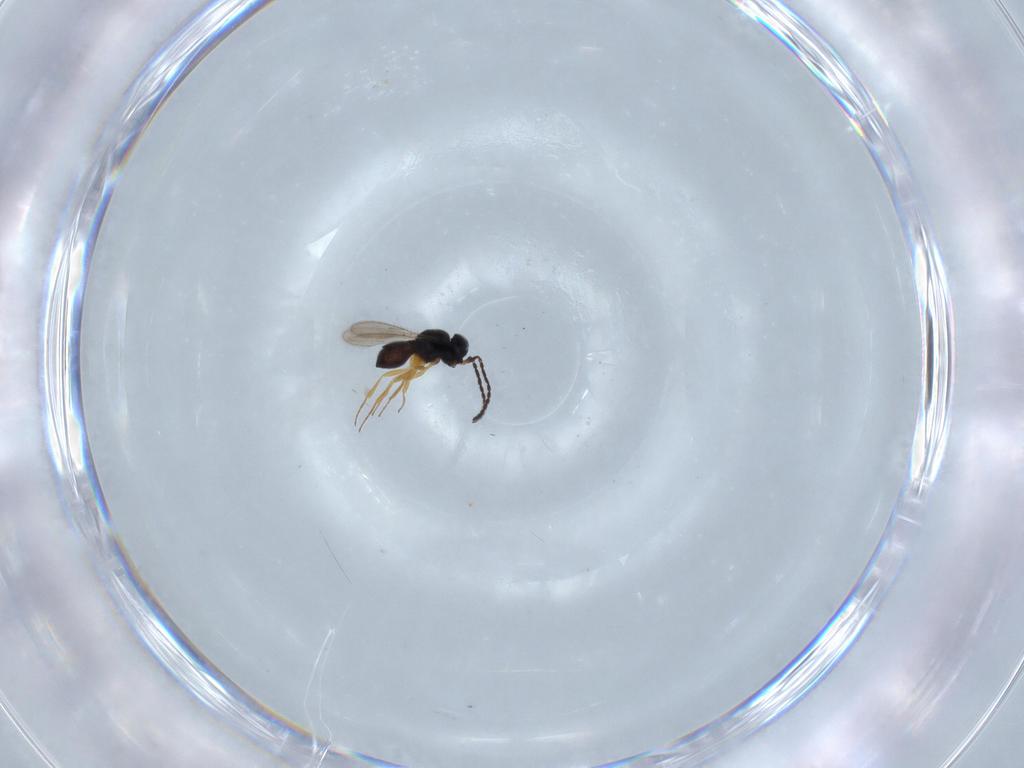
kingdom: Animalia
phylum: Arthropoda
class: Insecta
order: Hymenoptera
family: Scelionidae
